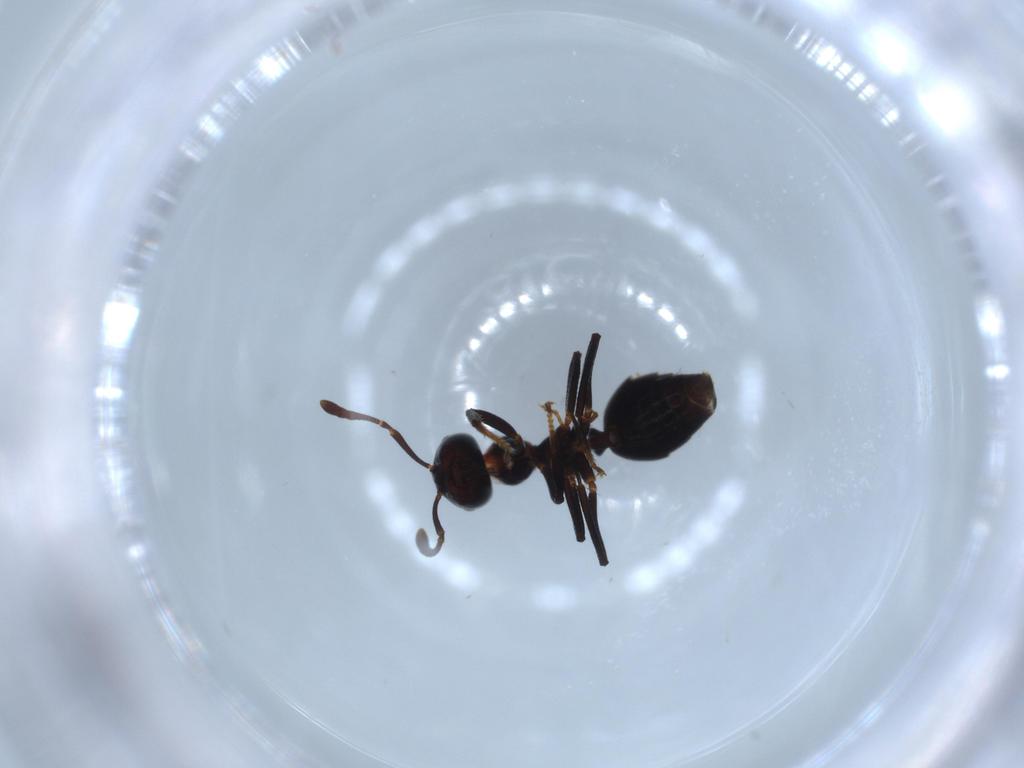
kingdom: Animalia
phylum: Arthropoda
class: Insecta
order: Hymenoptera
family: Formicidae
